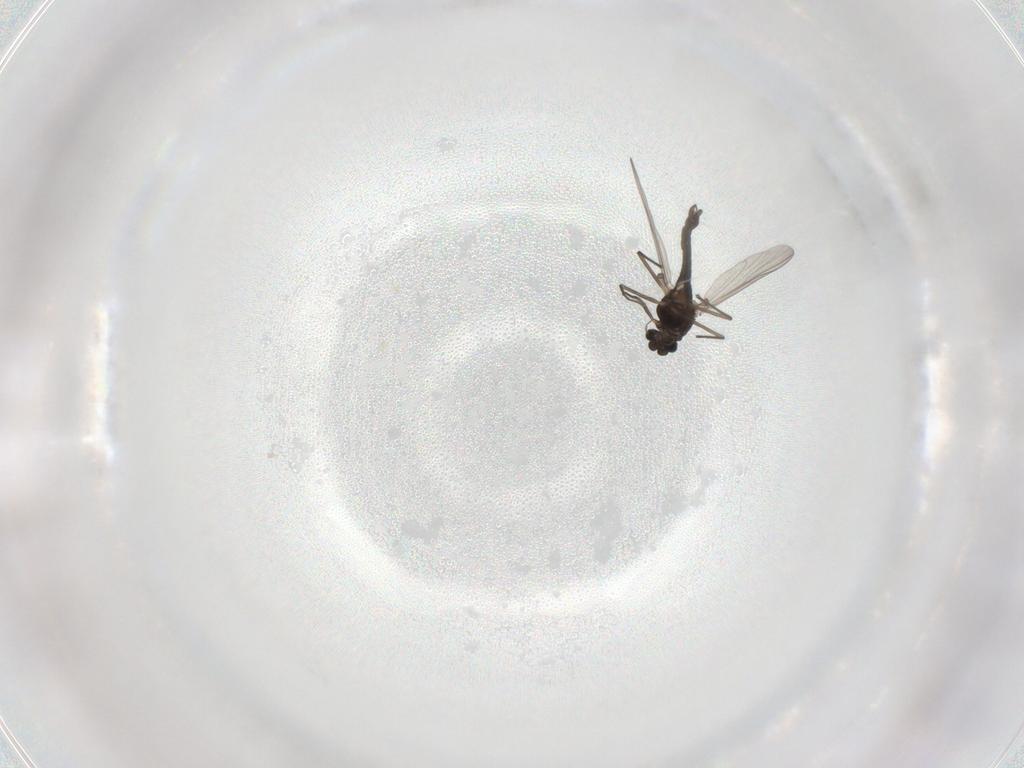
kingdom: Animalia
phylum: Arthropoda
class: Insecta
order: Diptera
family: Chironomidae
